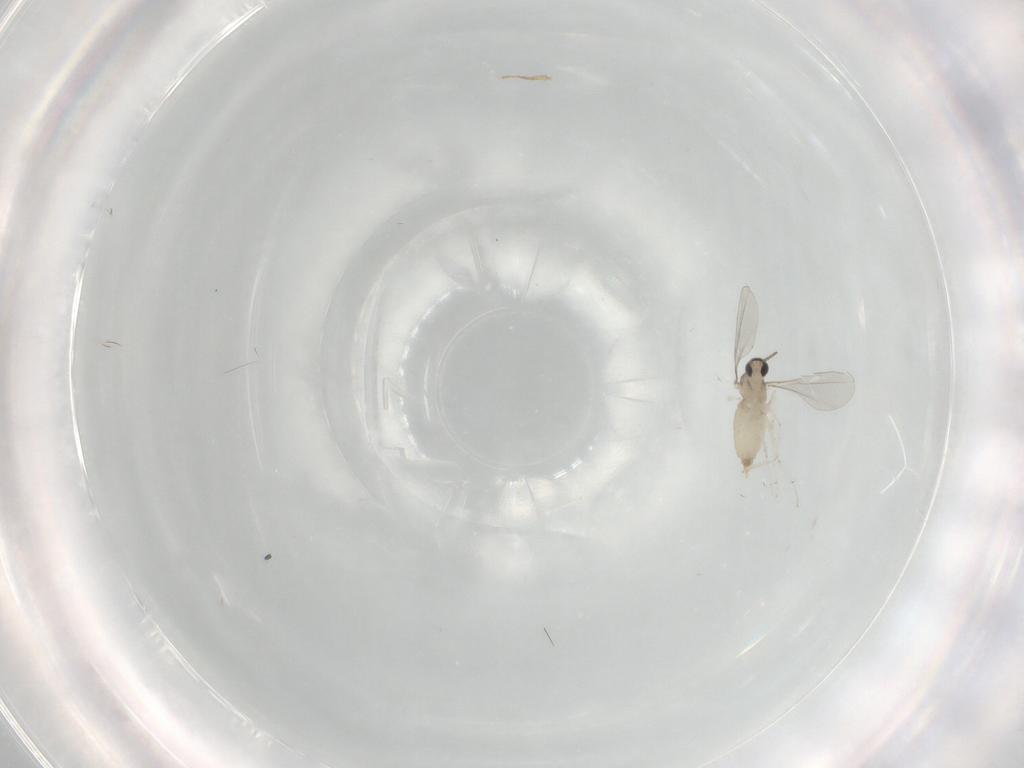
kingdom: Animalia
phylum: Arthropoda
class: Insecta
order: Diptera
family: Cecidomyiidae
